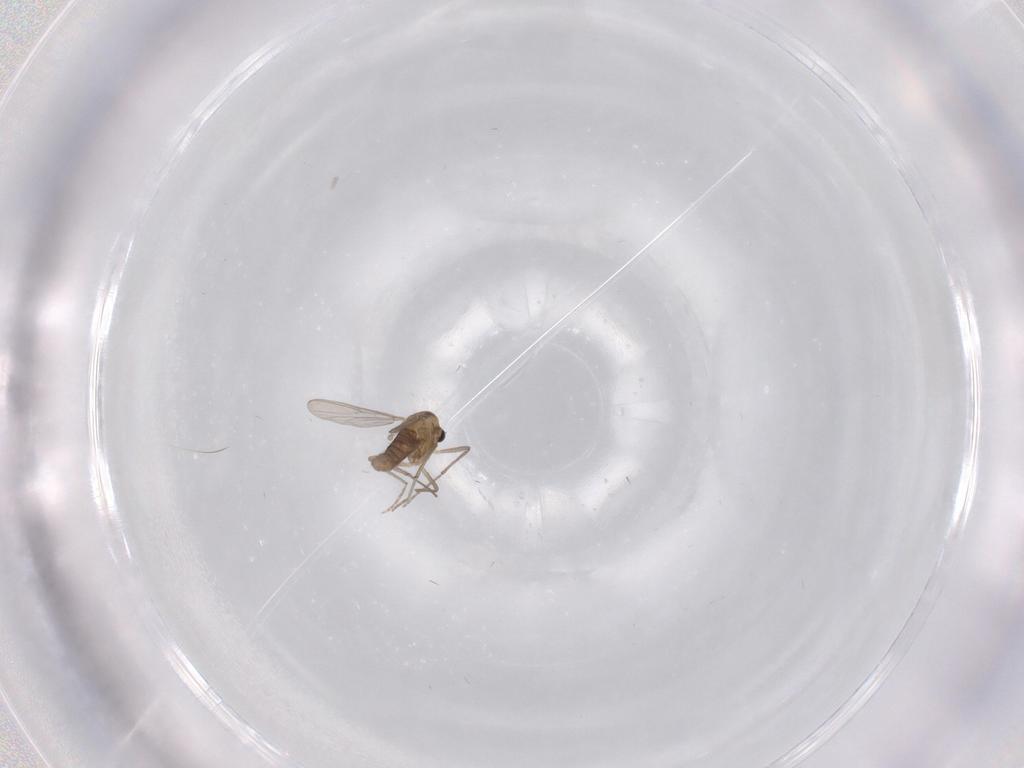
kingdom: Animalia
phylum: Arthropoda
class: Insecta
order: Diptera
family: Chironomidae
